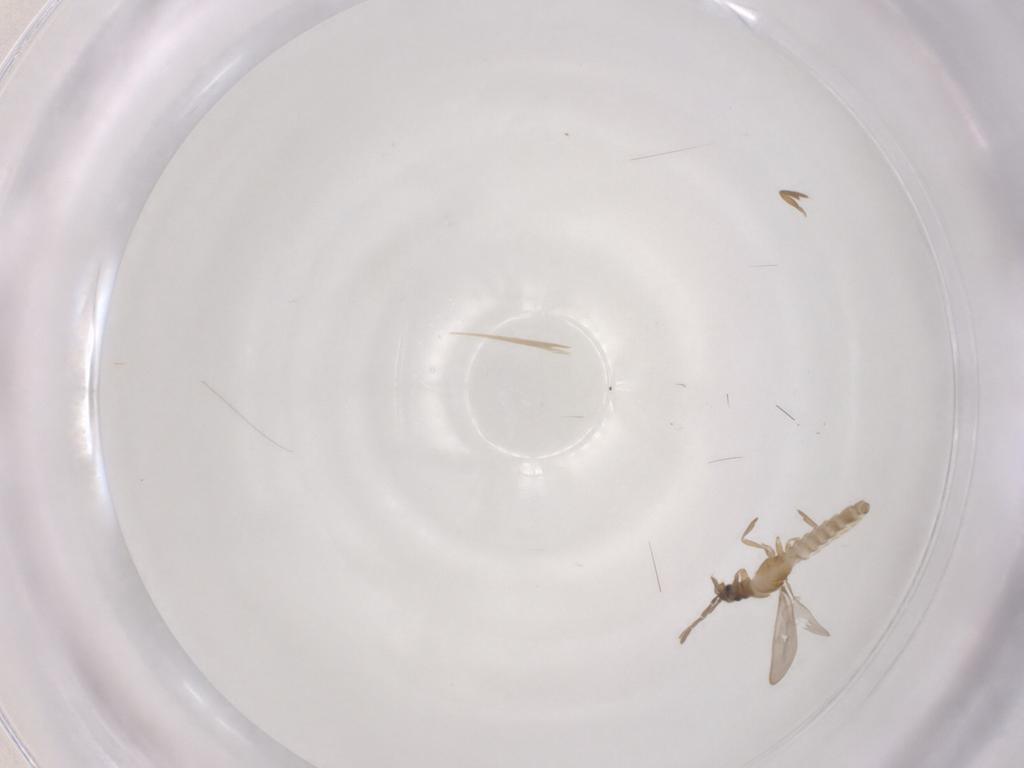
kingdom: Animalia
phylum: Arthropoda
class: Insecta
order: Hemiptera
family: Enicocephalidae
